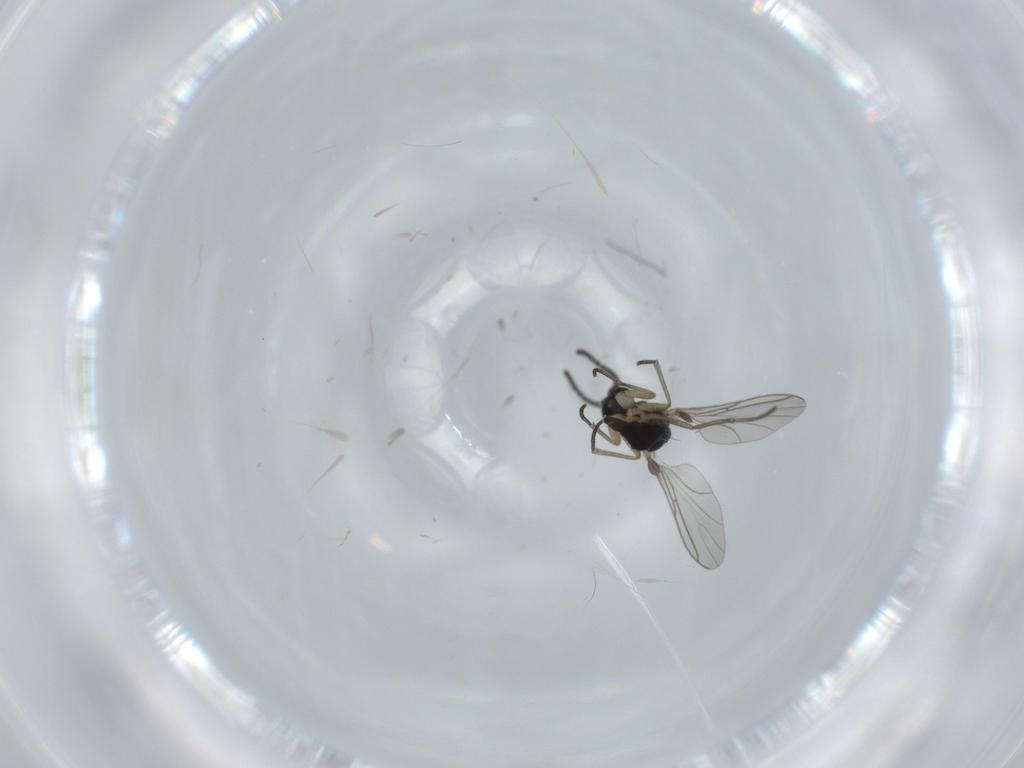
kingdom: Animalia
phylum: Arthropoda
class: Insecta
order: Diptera
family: Sciaridae
